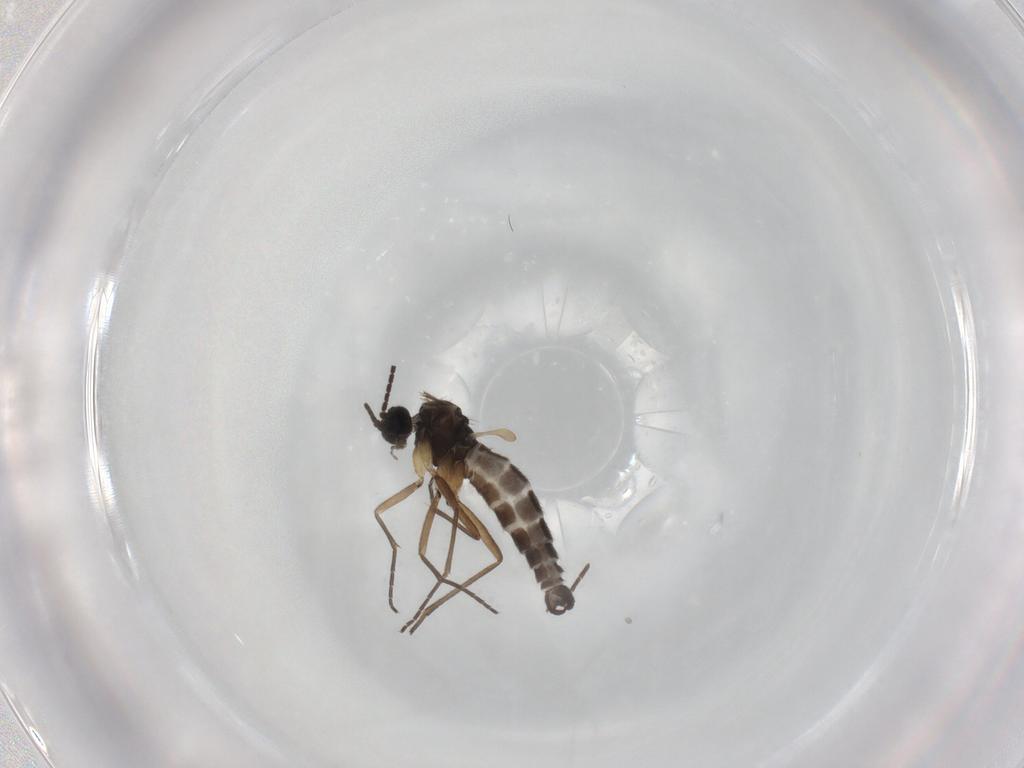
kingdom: Animalia
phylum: Arthropoda
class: Insecta
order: Diptera
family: Sciaridae
